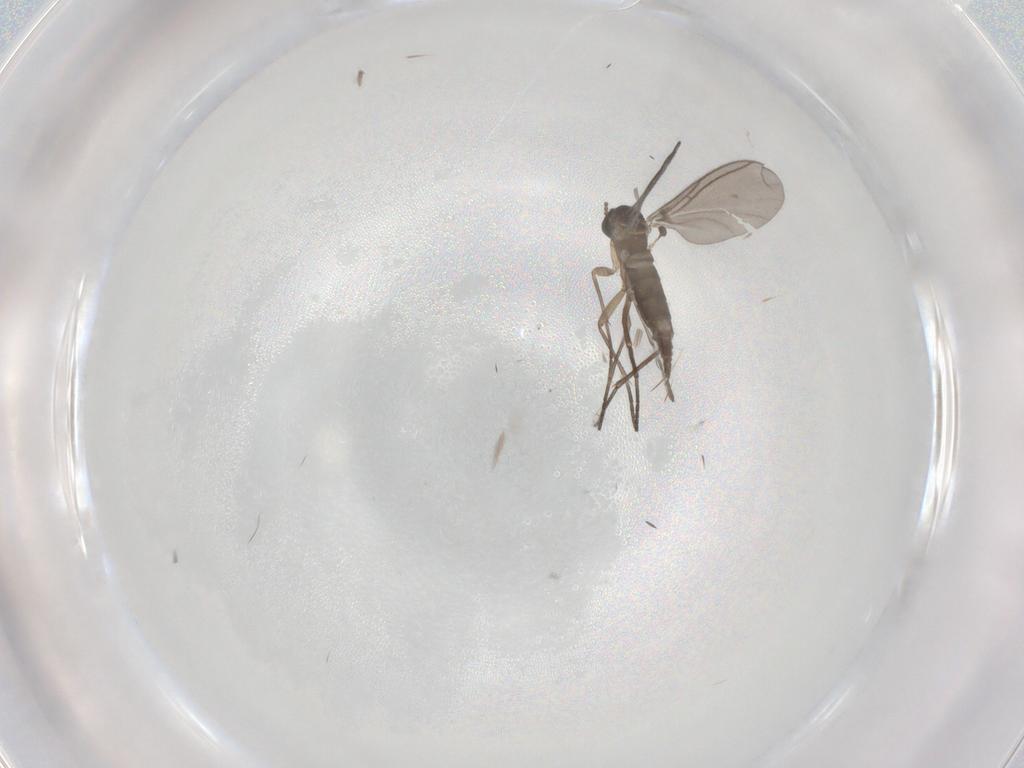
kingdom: Animalia
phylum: Arthropoda
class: Insecta
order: Diptera
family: Sciaridae
